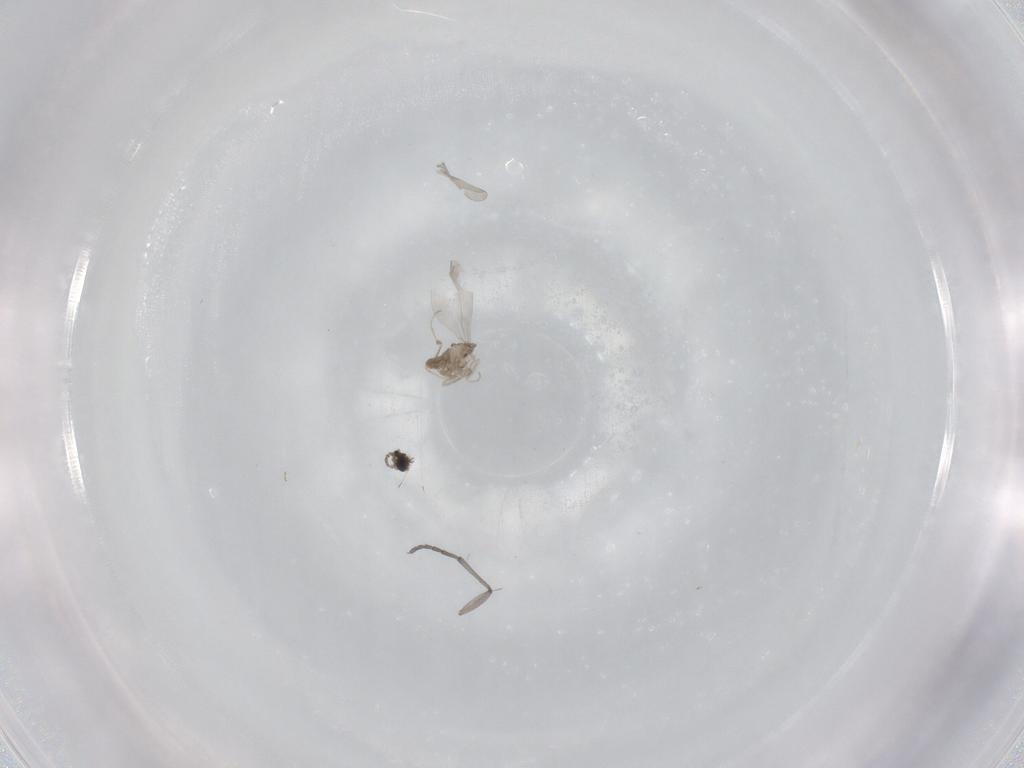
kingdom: Animalia
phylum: Arthropoda
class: Insecta
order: Diptera
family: Cecidomyiidae
